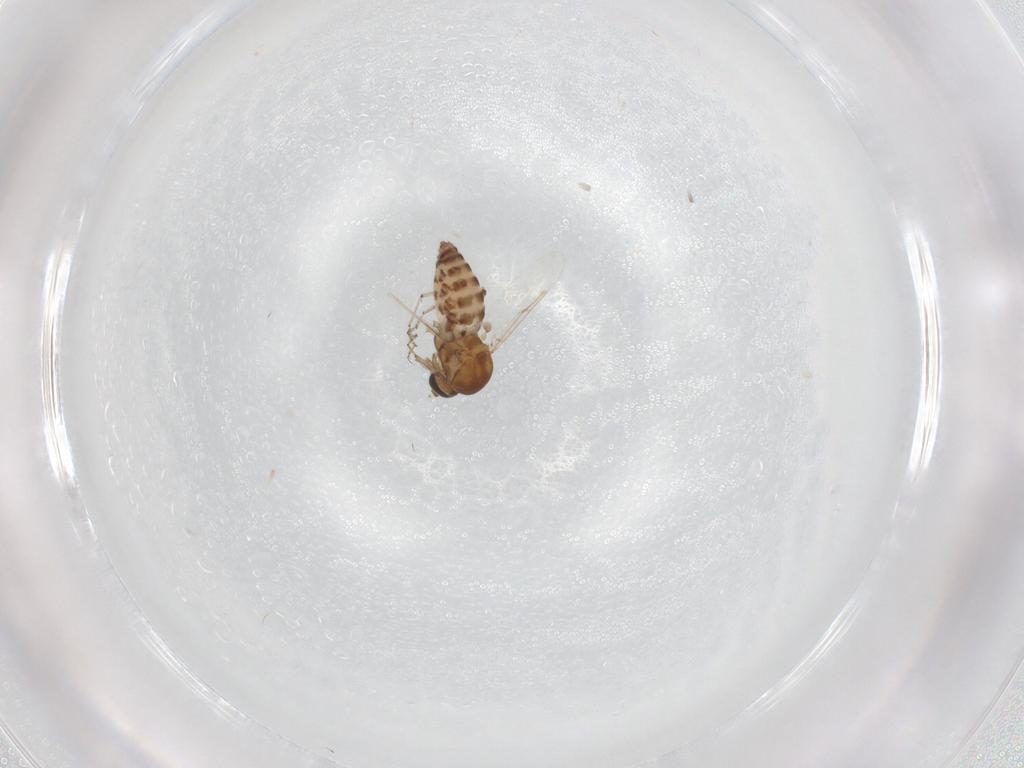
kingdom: Animalia
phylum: Arthropoda
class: Insecta
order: Diptera
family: Ceratopogonidae
